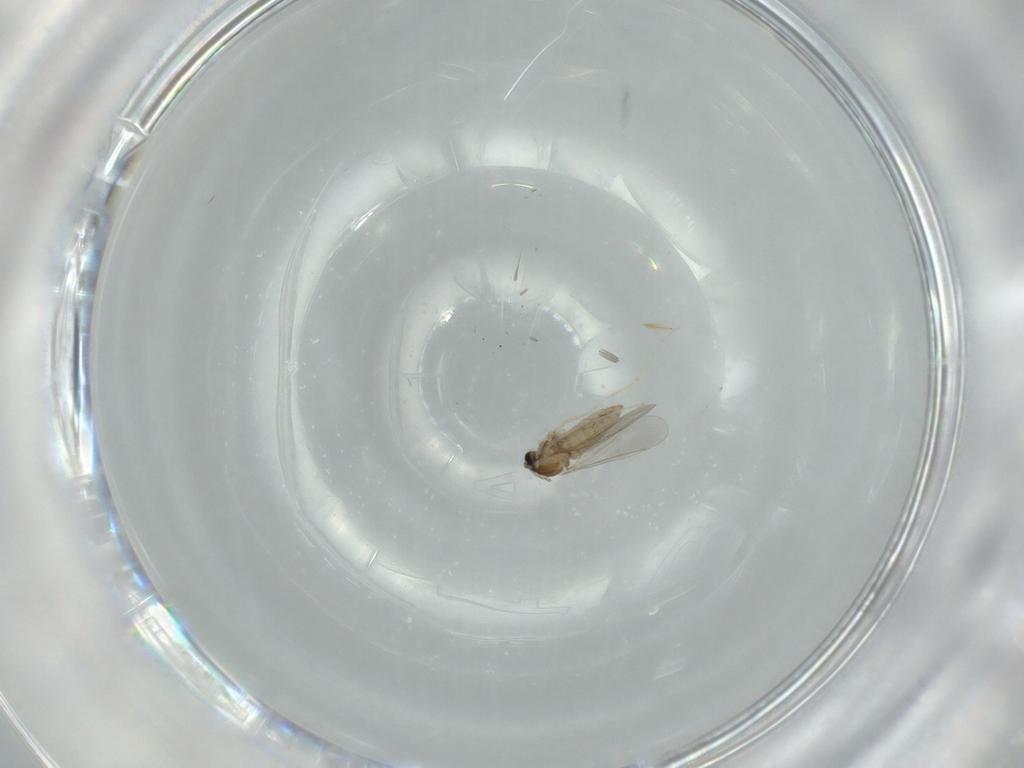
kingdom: Animalia
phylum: Arthropoda
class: Insecta
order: Diptera
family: Cecidomyiidae
